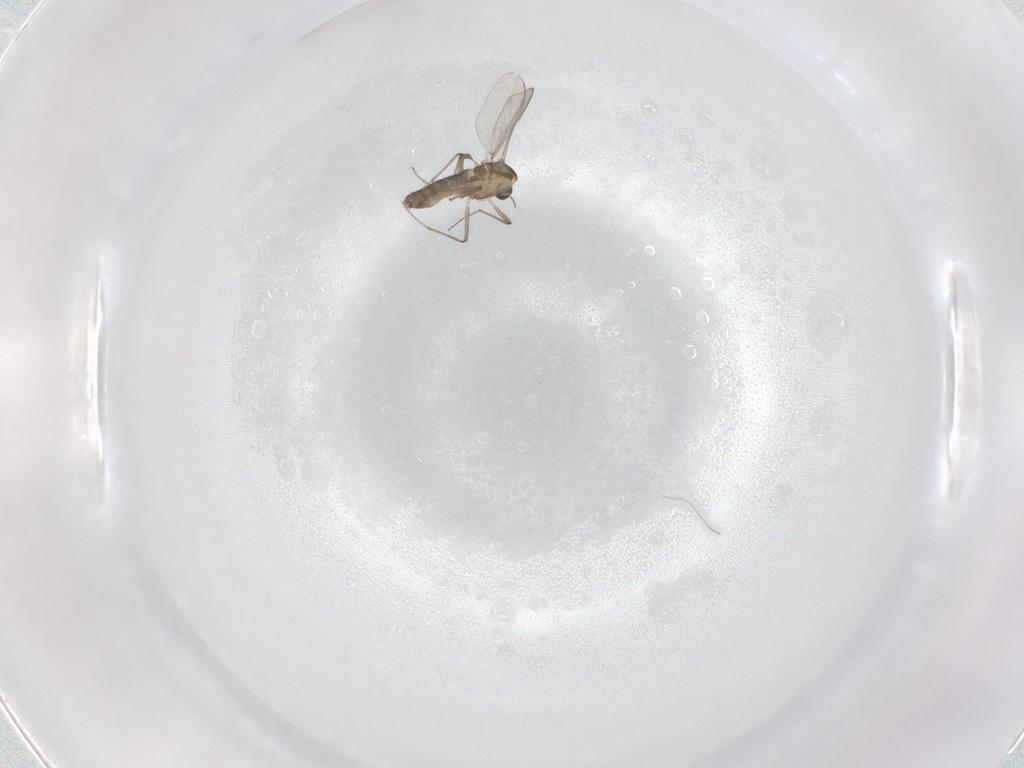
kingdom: Animalia
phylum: Arthropoda
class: Insecta
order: Diptera
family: Chironomidae
